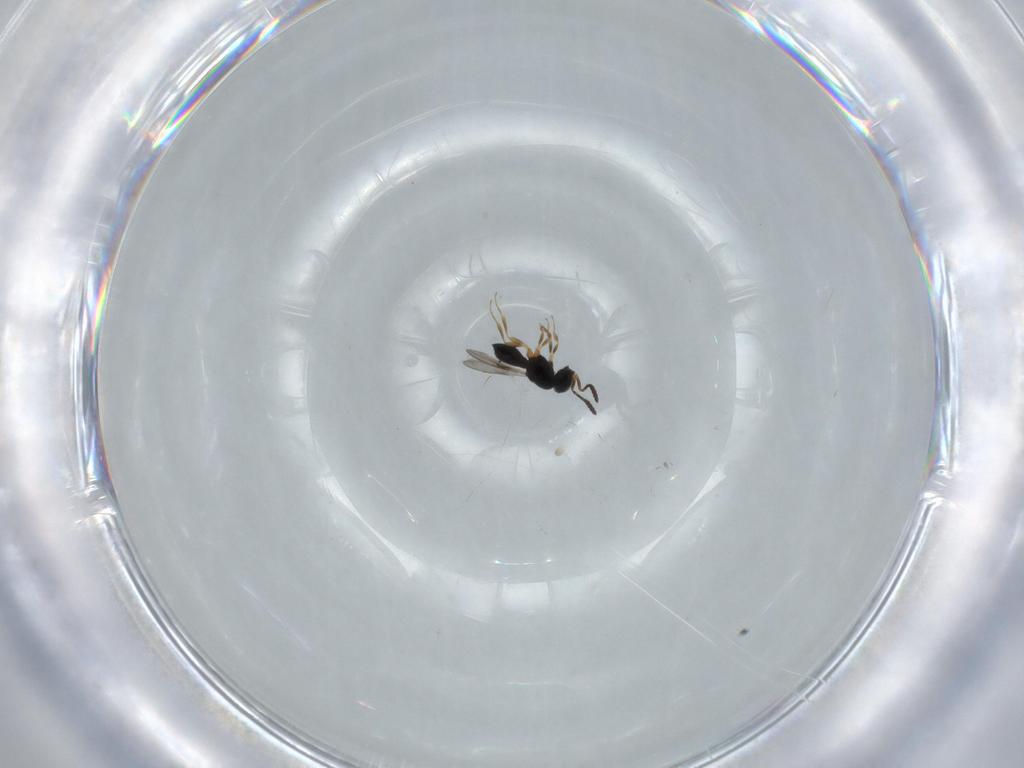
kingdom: Animalia
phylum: Arthropoda
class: Insecta
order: Hymenoptera
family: Scelionidae
